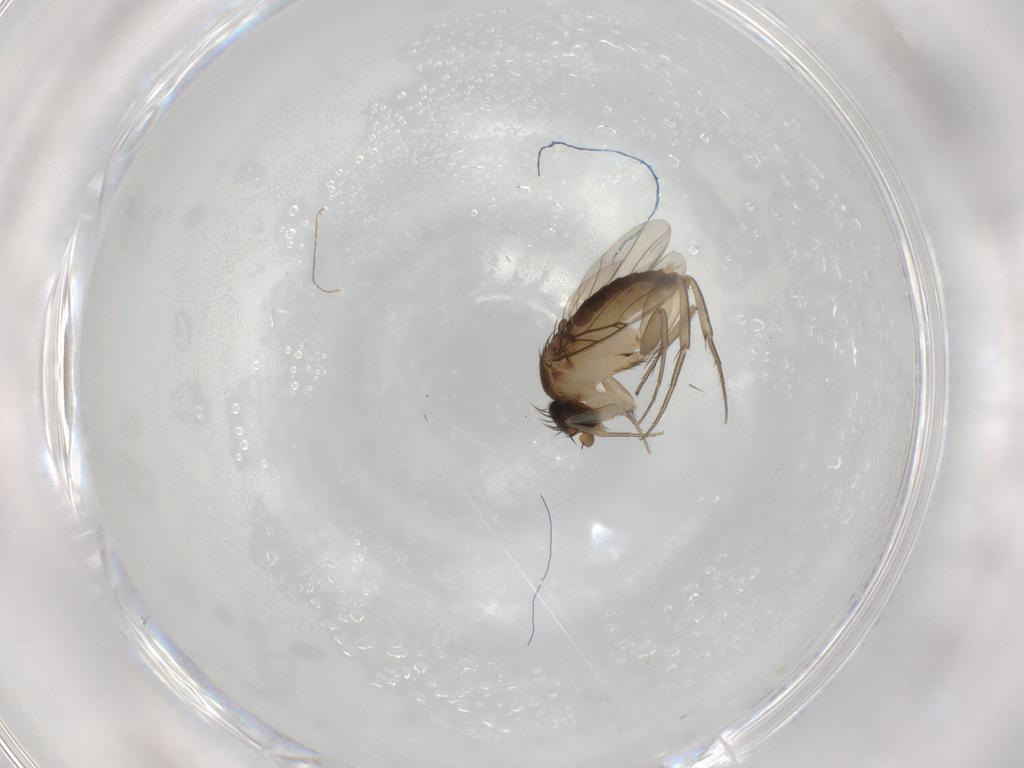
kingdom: Animalia
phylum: Arthropoda
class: Insecta
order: Diptera
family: Phoridae
